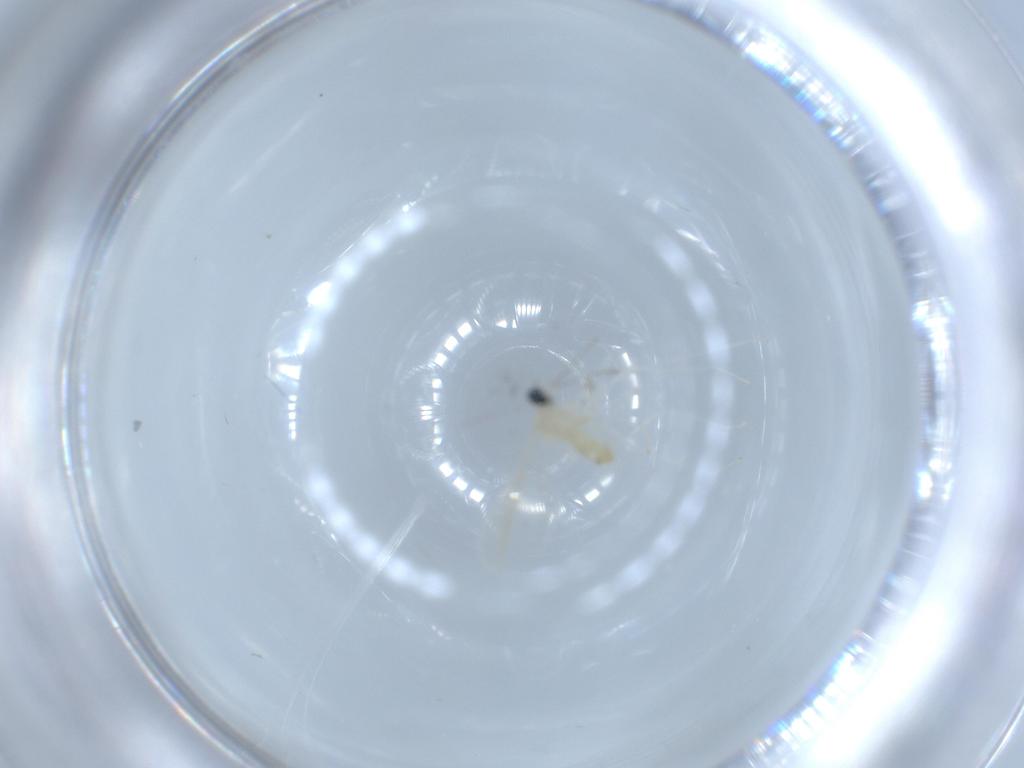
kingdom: Animalia
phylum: Arthropoda
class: Insecta
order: Diptera
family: Cecidomyiidae
